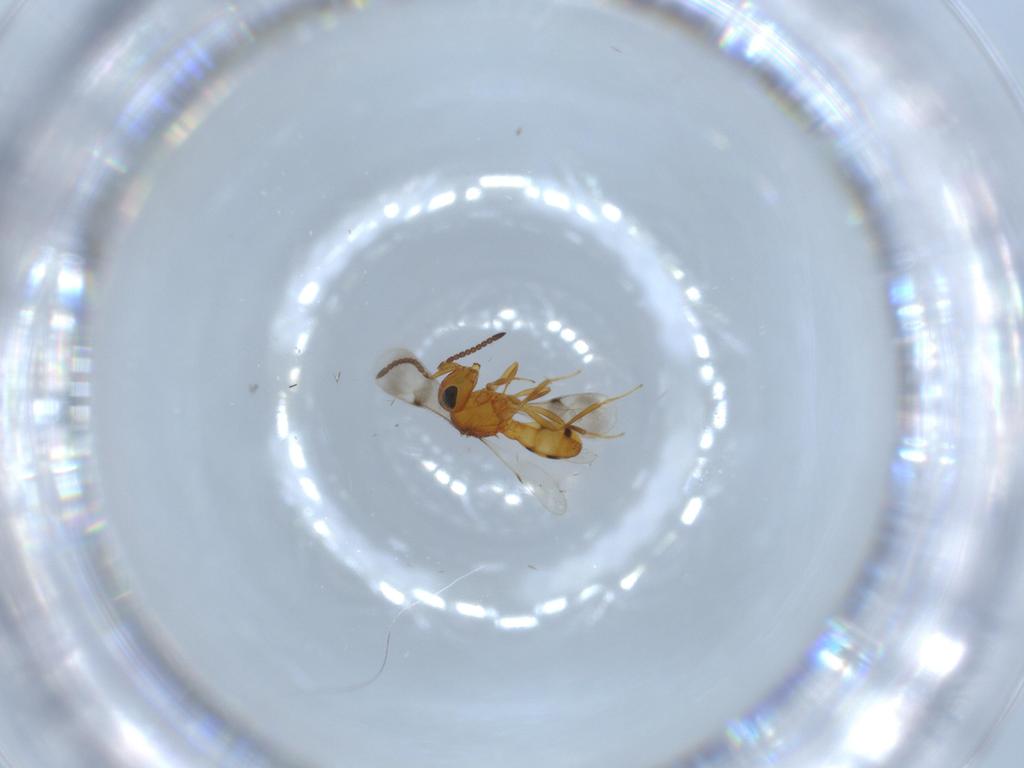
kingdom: Animalia
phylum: Arthropoda
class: Insecta
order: Hymenoptera
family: Scelionidae
